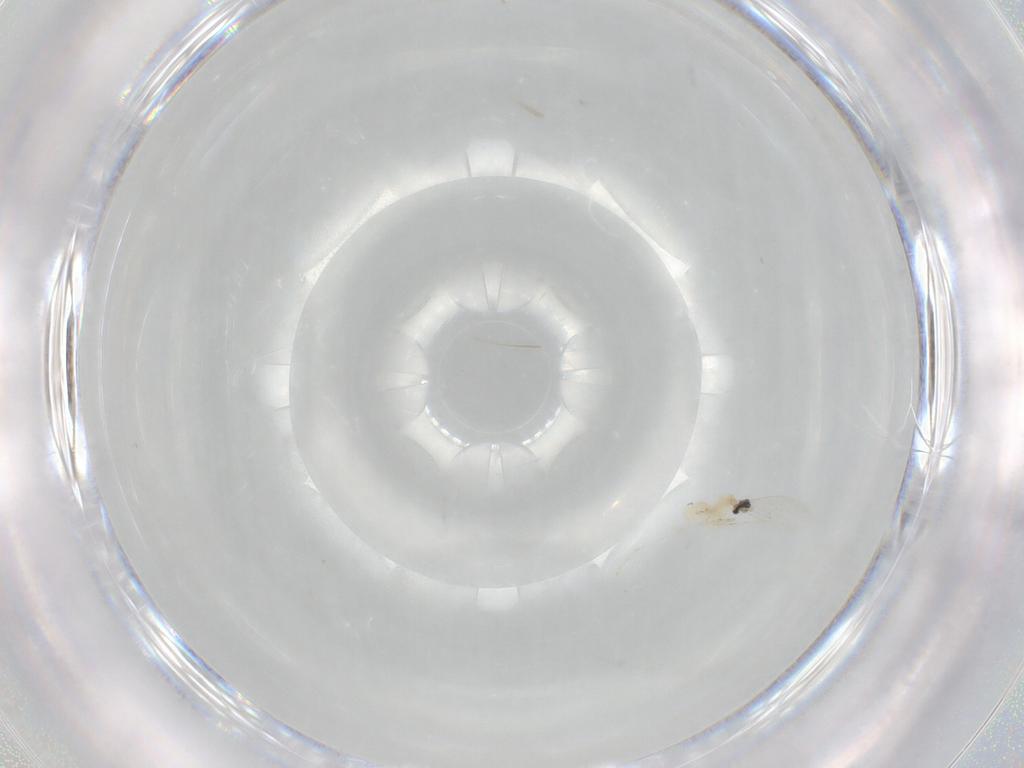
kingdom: Animalia
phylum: Arthropoda
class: Insecta
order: Diptera
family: Cecidomyiidae
